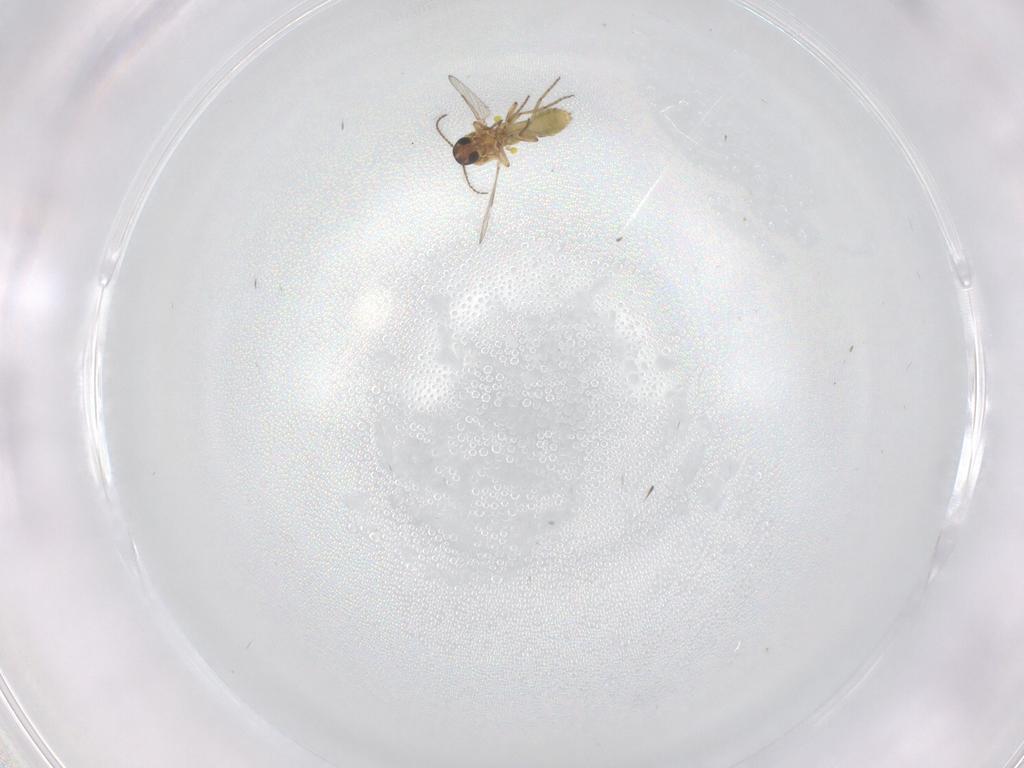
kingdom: Animalia
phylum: Arthropoda
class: Insecta
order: Diptera
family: Ceratopogonidae
